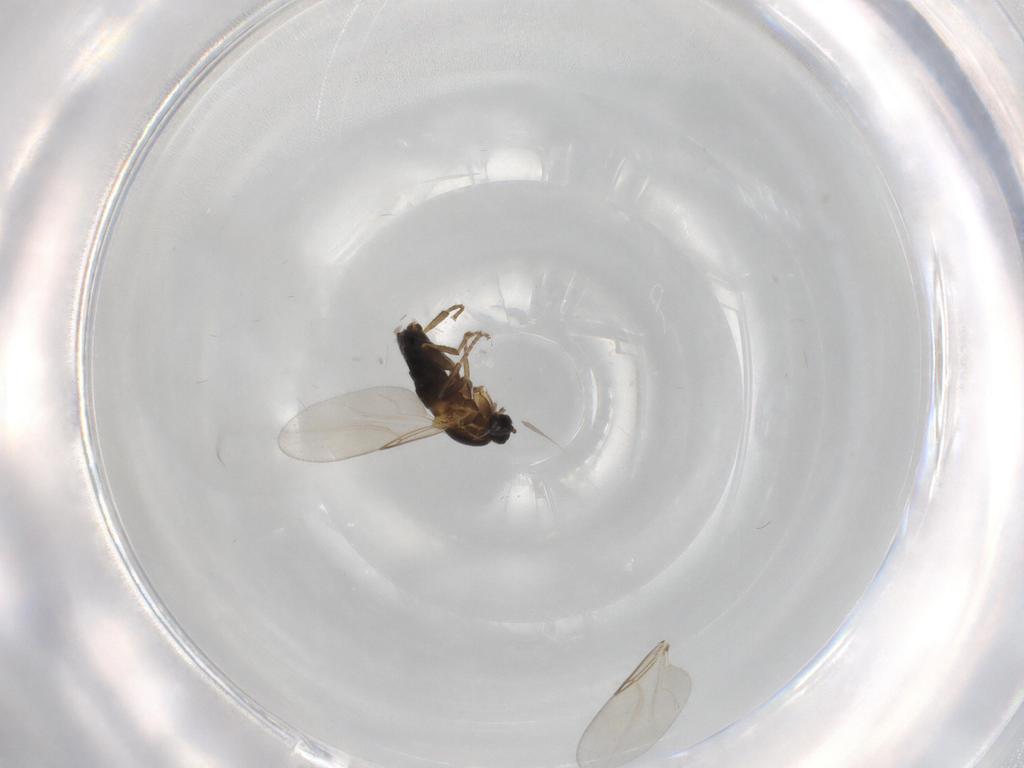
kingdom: Animalia
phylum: Arthropoda
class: Insecta
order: Diptera
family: Scatopsidae
